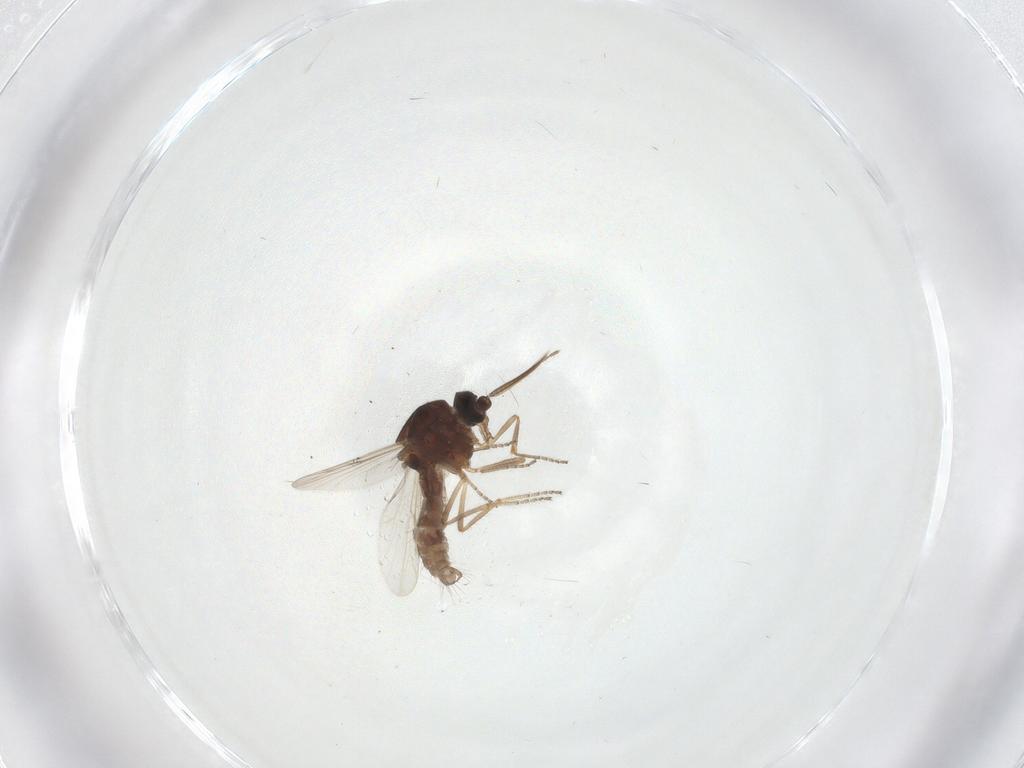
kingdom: Animalia
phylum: Arthropoda
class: Insecta
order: Diptera
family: Ceratopogonidae
